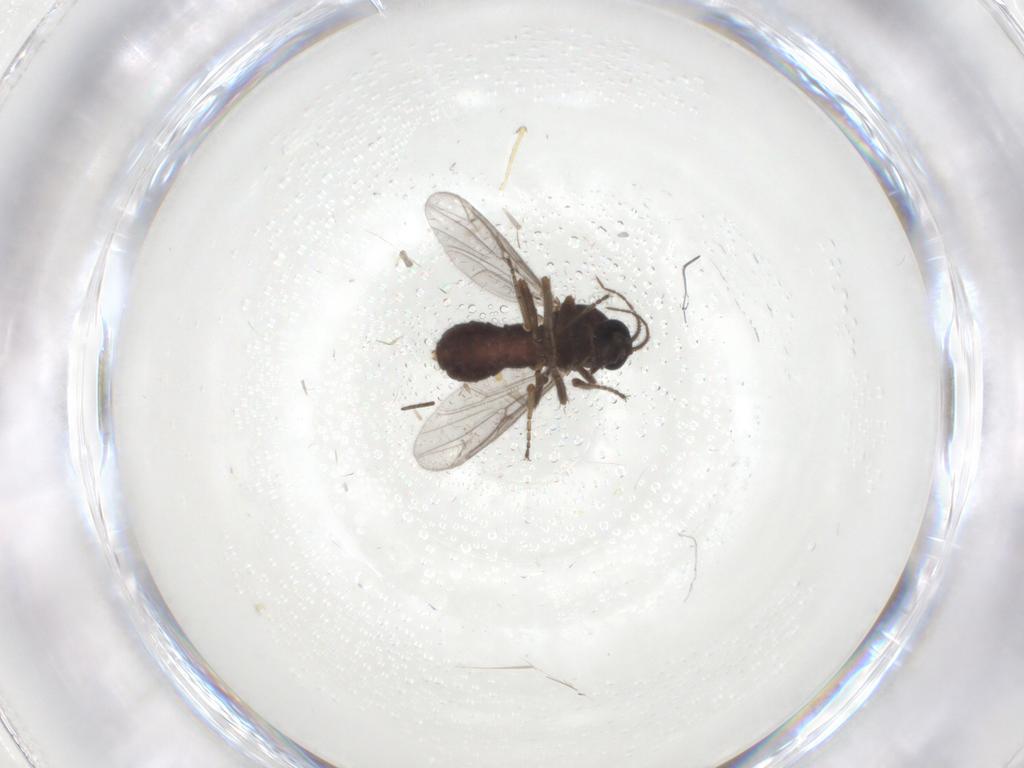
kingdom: Animalia
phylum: Arthropoda
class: Insecta
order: Diptera
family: Ceratopogonidae
